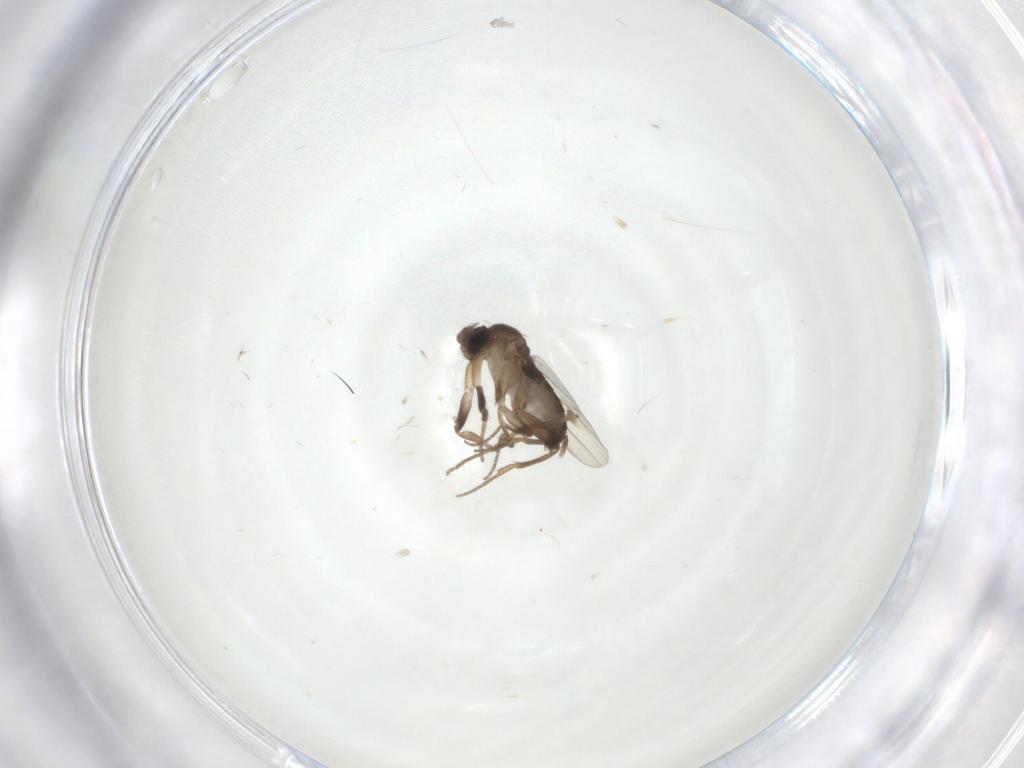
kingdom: Animalia
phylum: Arthropoda
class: Insecta
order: Diptera
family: Phoridae
